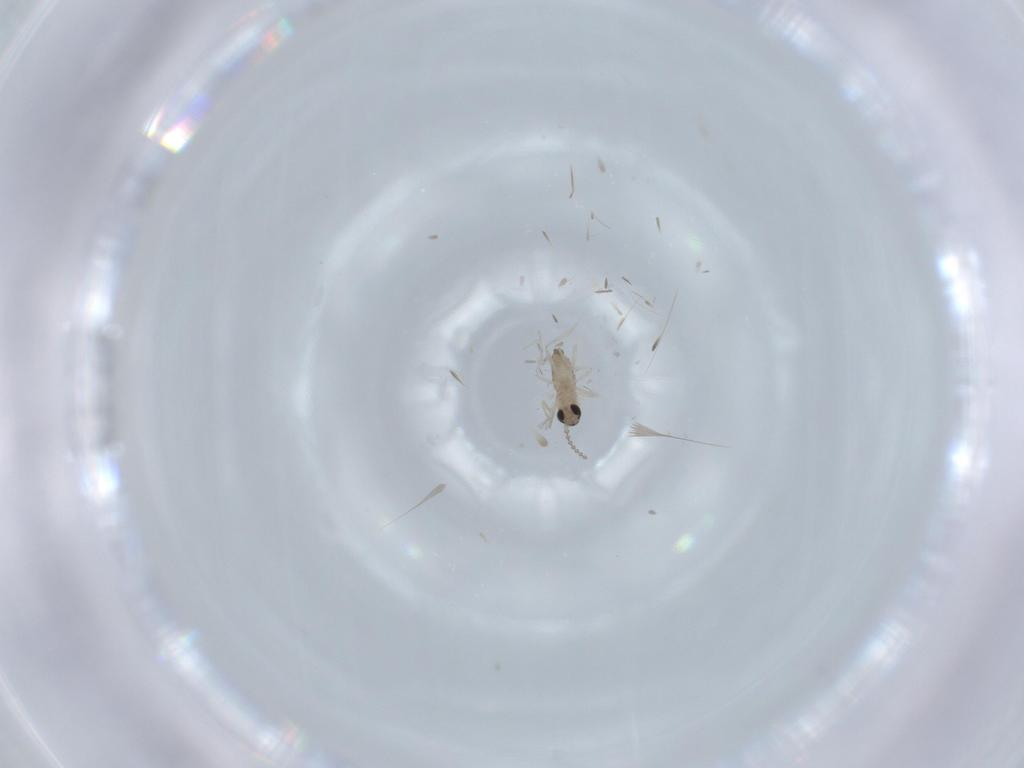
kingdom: Animalia
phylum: Arthropoda
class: Insecta
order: Diptera
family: Cecidomyiidae
